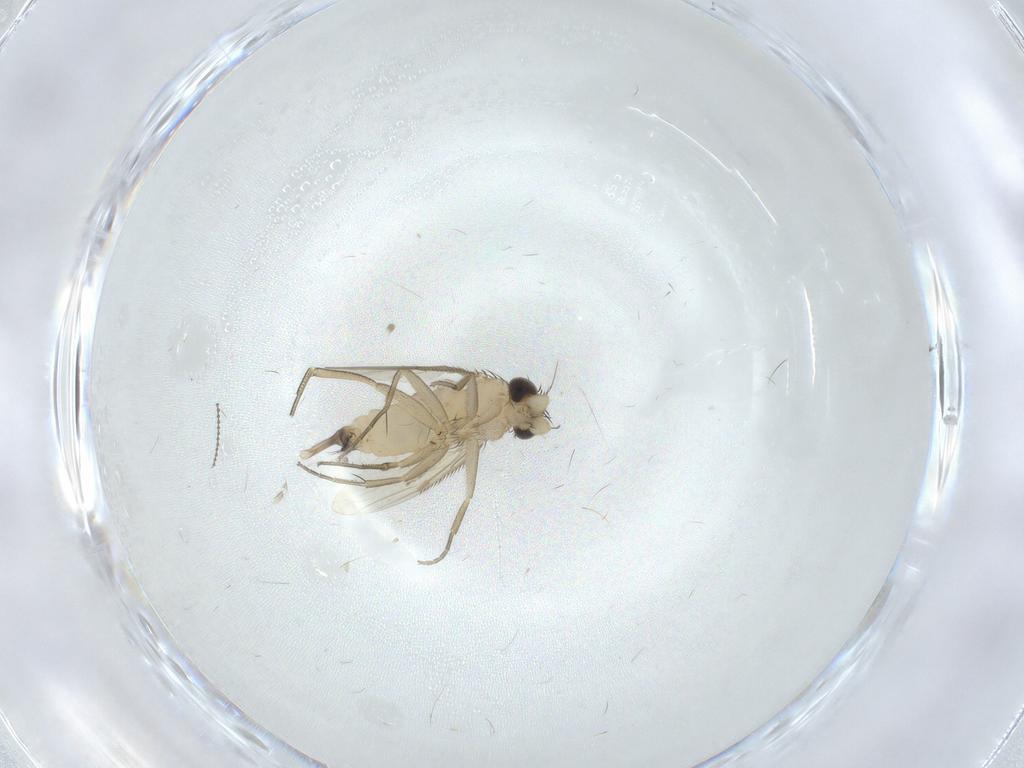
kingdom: Animalia
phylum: Arthropoda
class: Insecta
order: Diptera
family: Phoridae
